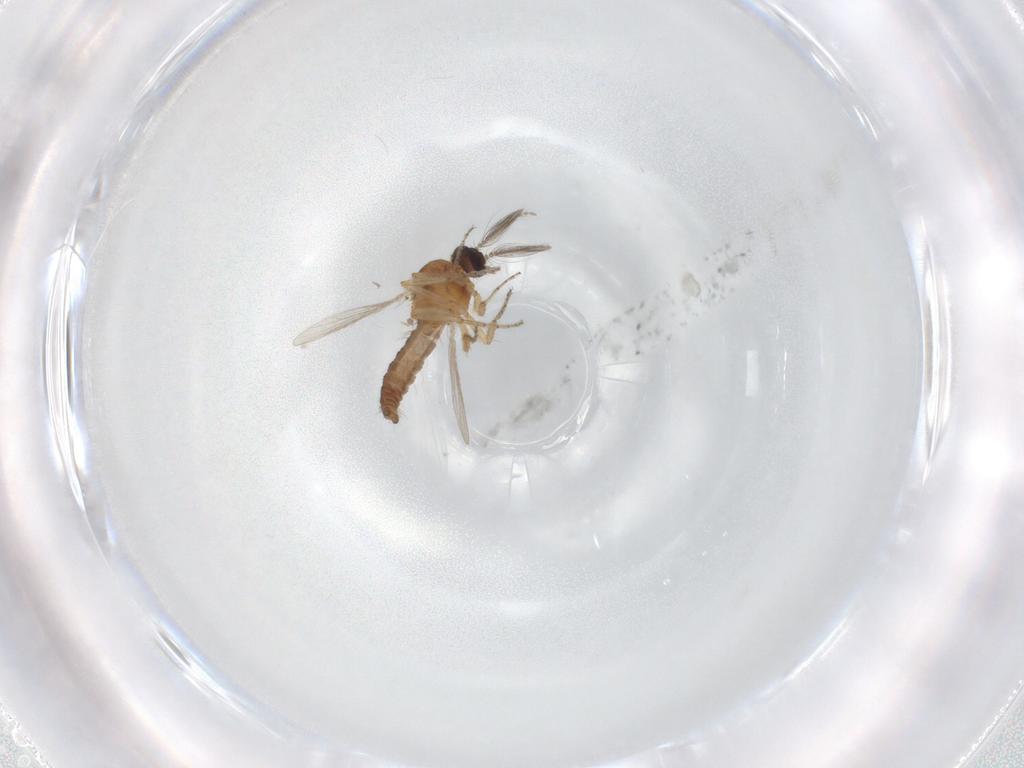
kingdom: Animalia
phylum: Arthropoda
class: Insecta
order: Diptera
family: Ceratopogonidae
